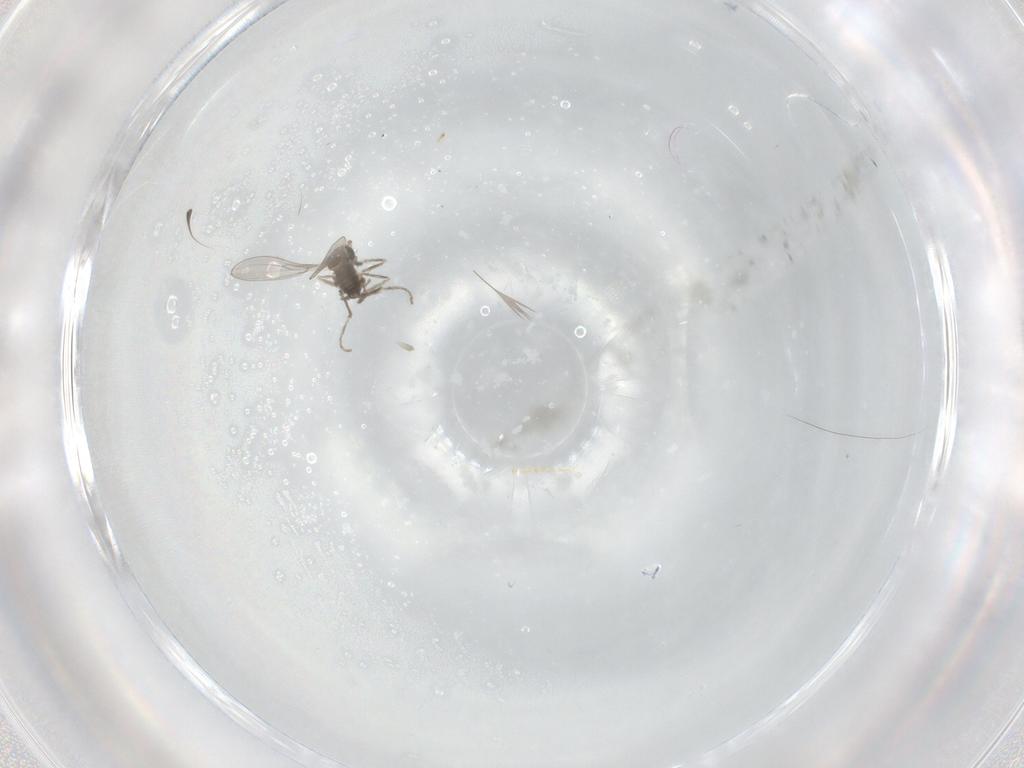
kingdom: Animalia
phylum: Arthropoda
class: Insecta
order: Diptera
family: Cecidomyiidae
